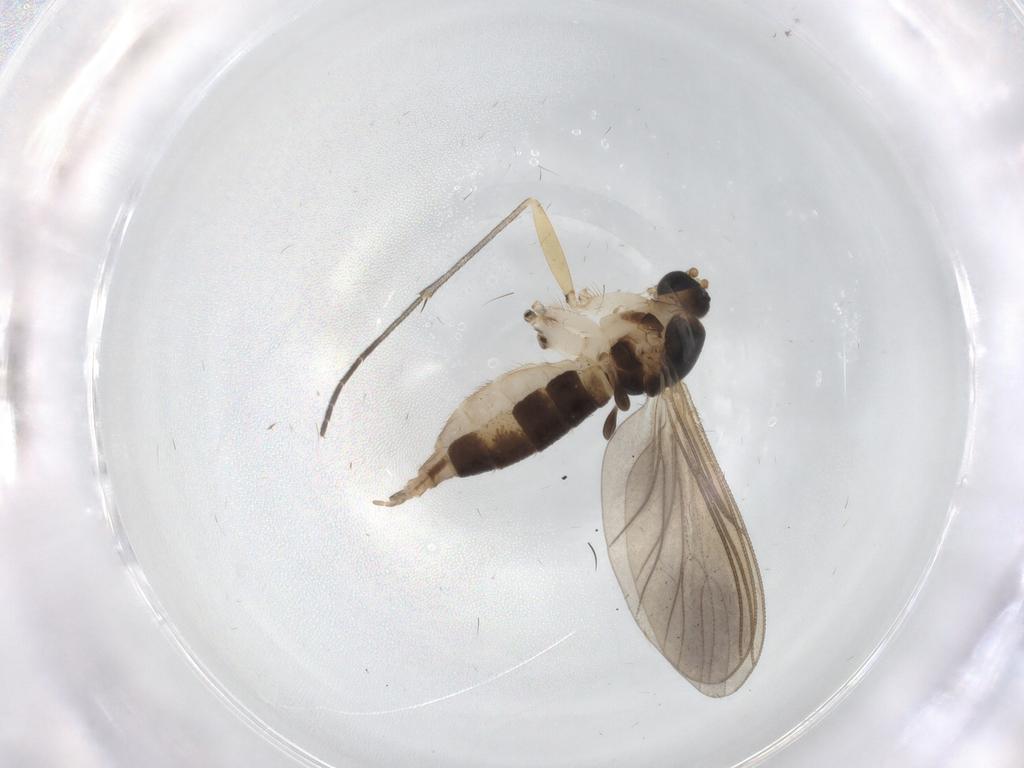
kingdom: Animalia
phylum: Arthropoda
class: Insecta
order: Diptera
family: Sciaridae
